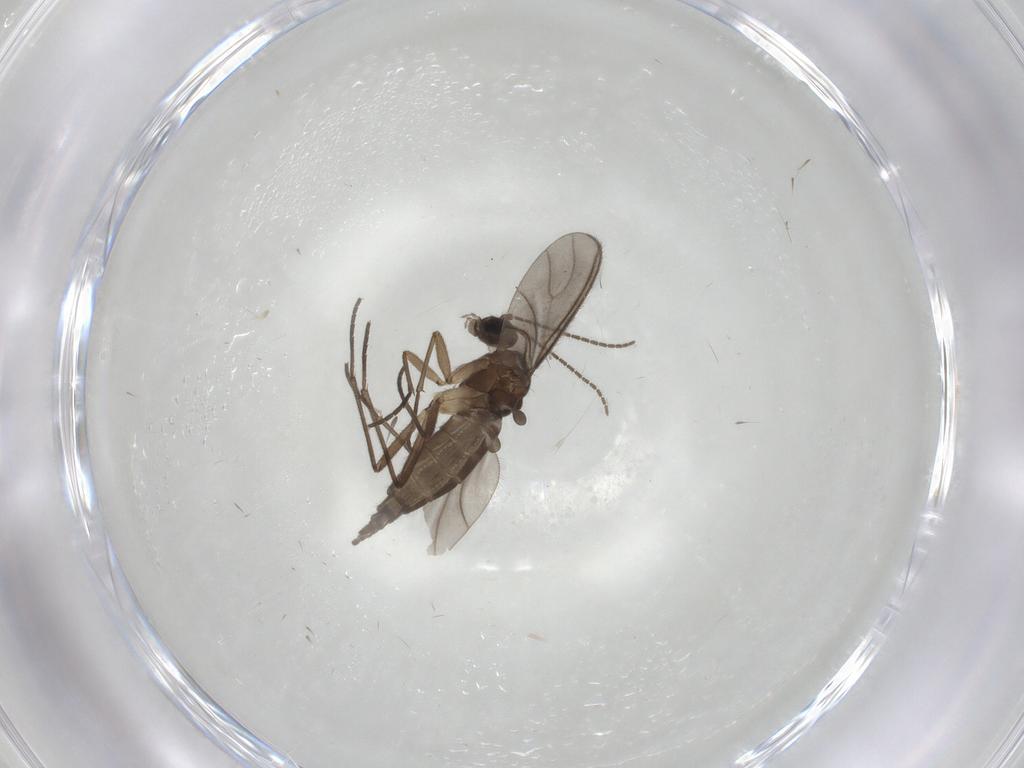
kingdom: Animalia
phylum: Arthropoda
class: Insecta
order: Diptera
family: Sciaridae
